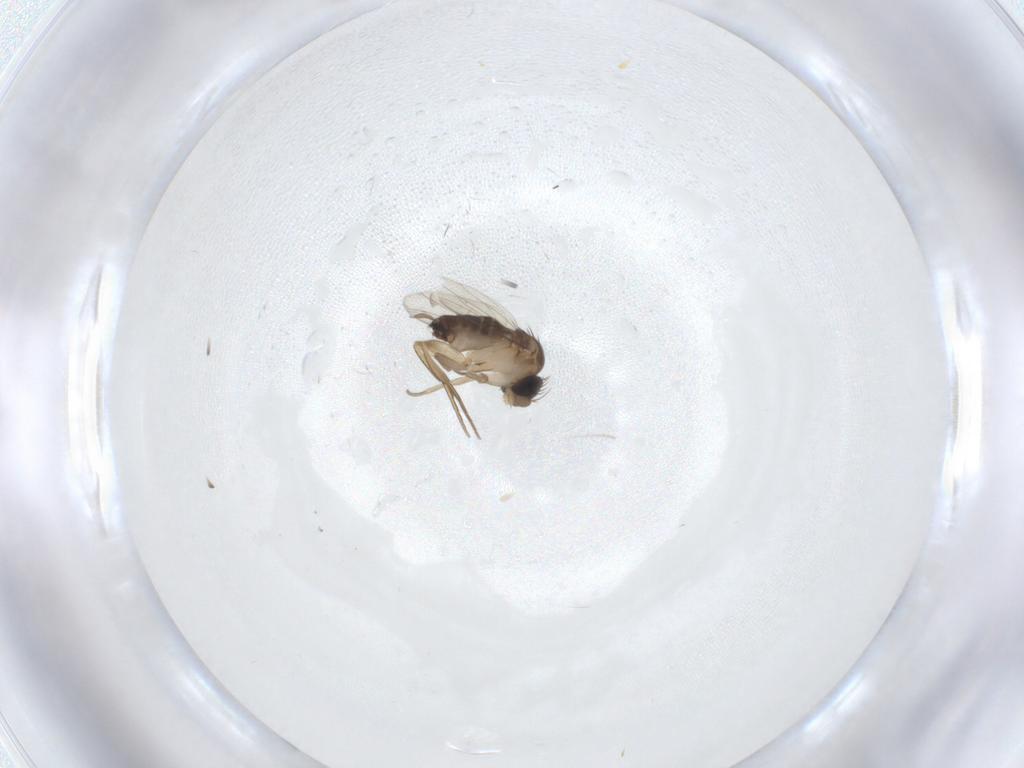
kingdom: Animalia
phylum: Arthropoda
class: Insecta
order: Diptera
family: Phoridae
